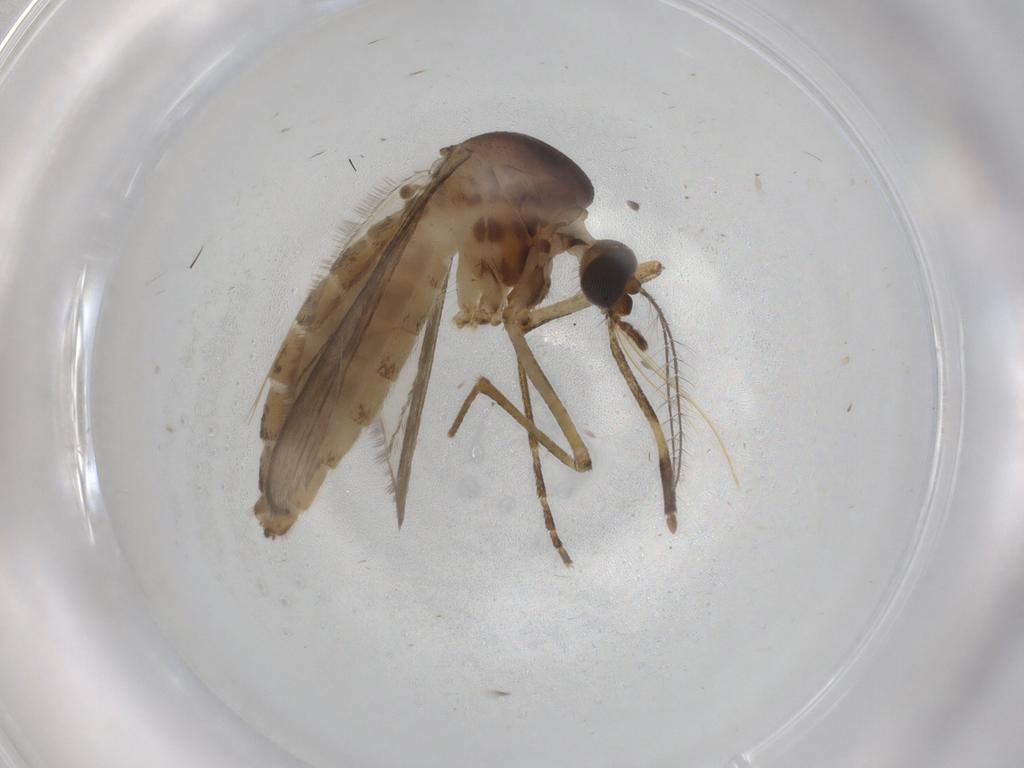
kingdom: Animalia
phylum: Arthropoda
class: Insecta
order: Diptera
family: Culicidae
